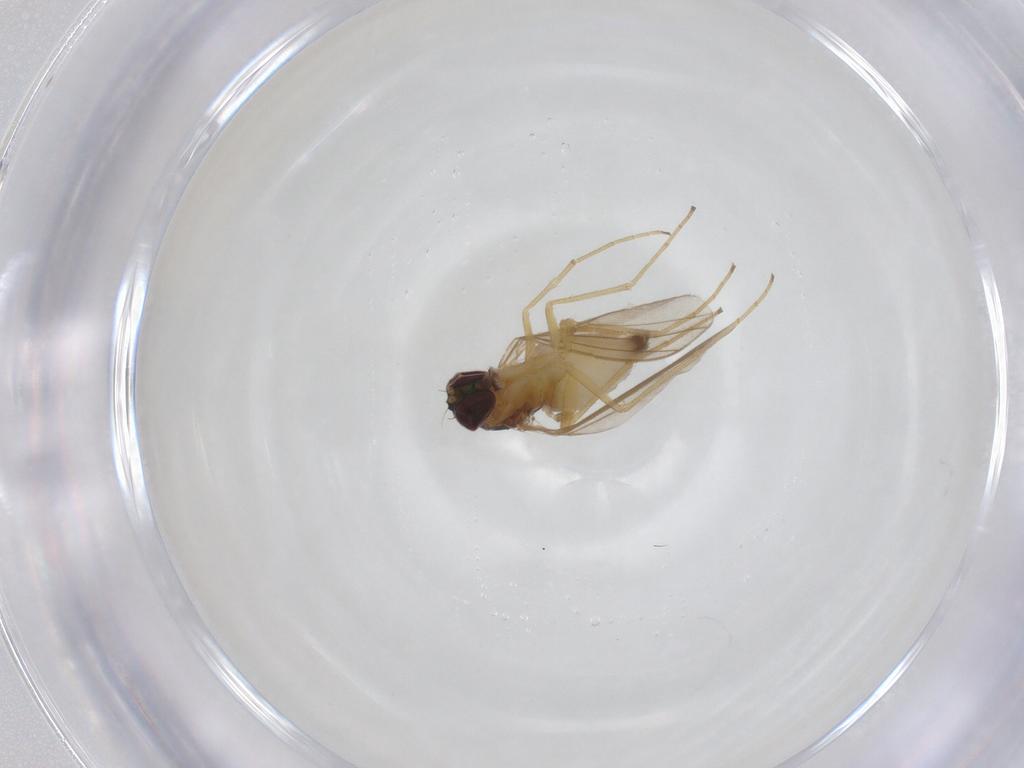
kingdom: Animalia
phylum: Arthropoda
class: Insecta
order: Diptera
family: Dolichopodidae
